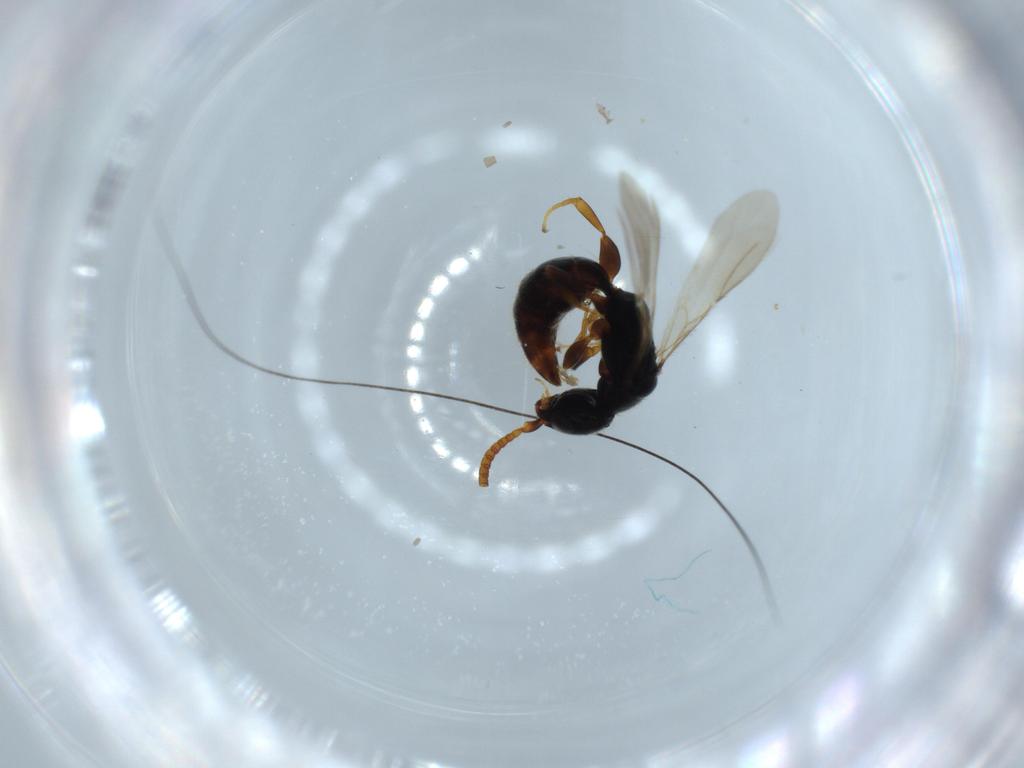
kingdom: Animalia
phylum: Arthropoda
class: Insecta
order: Hymenoptera
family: Bethylidae
